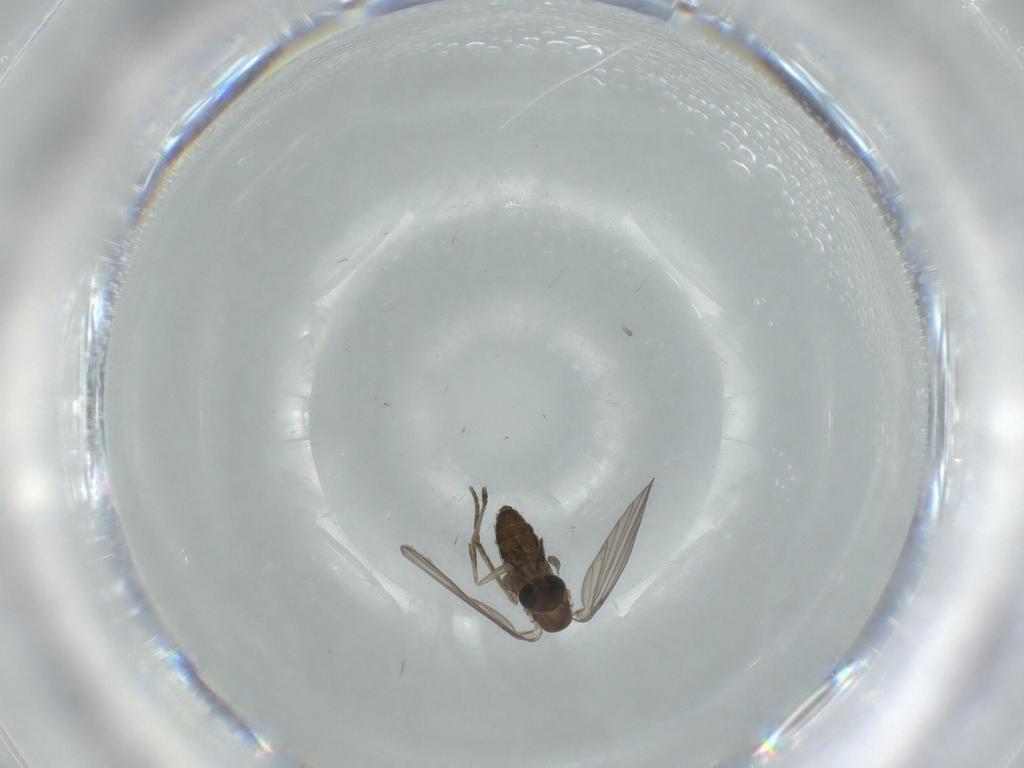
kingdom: Animalia
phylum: Arthropoda
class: Insecta
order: Diptera
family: Psychodidae
